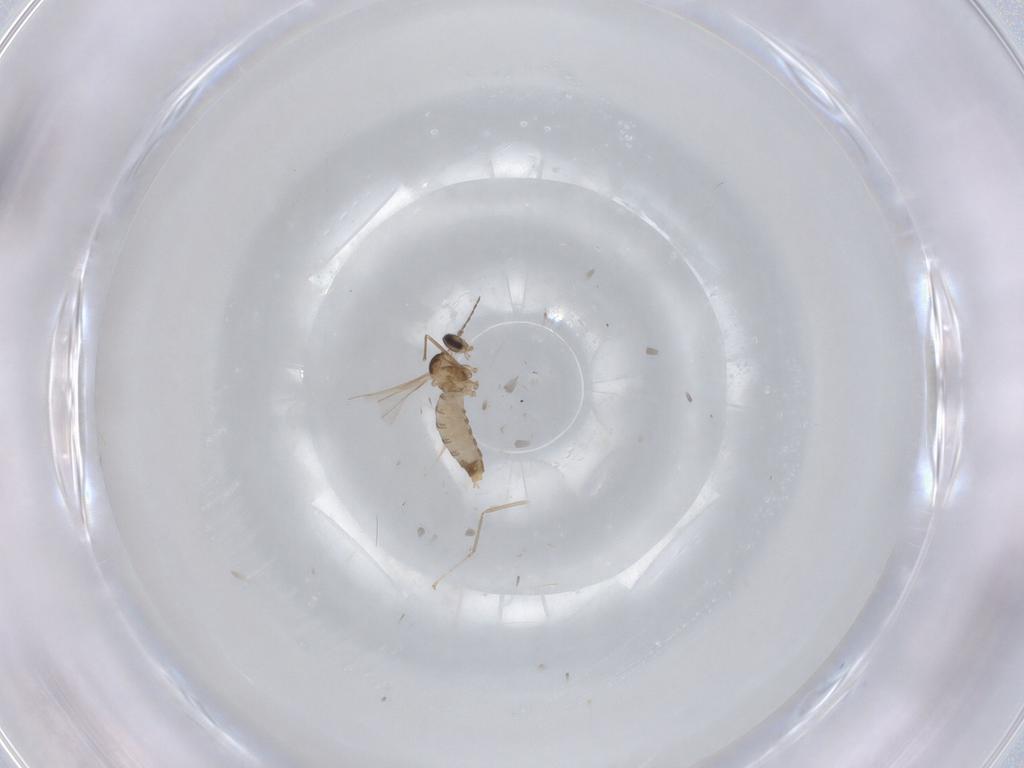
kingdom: Animalia
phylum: Arthropoda
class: Insecta
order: Diptera
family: Cecidomyiidae
